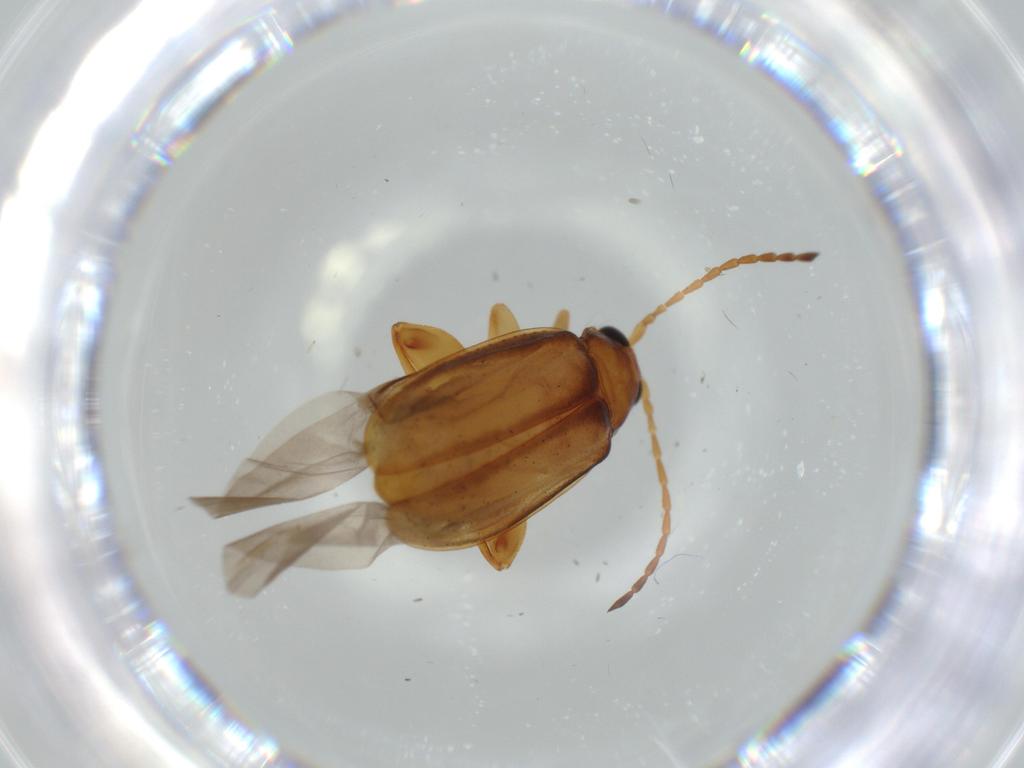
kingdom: Animalia
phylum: Arthropoda
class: Insecta
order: Coleoptera
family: Chrysomelidae
